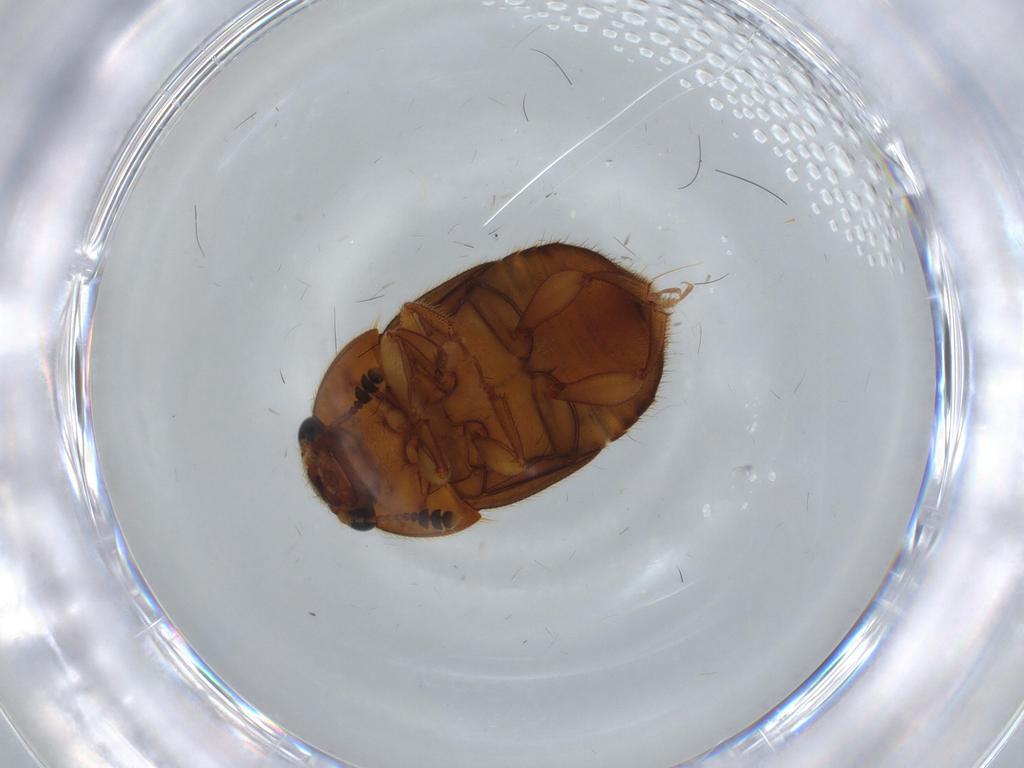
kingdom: Animalia
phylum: Arthropoda
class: Insecta
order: Coleoptera
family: Nitidulidae
